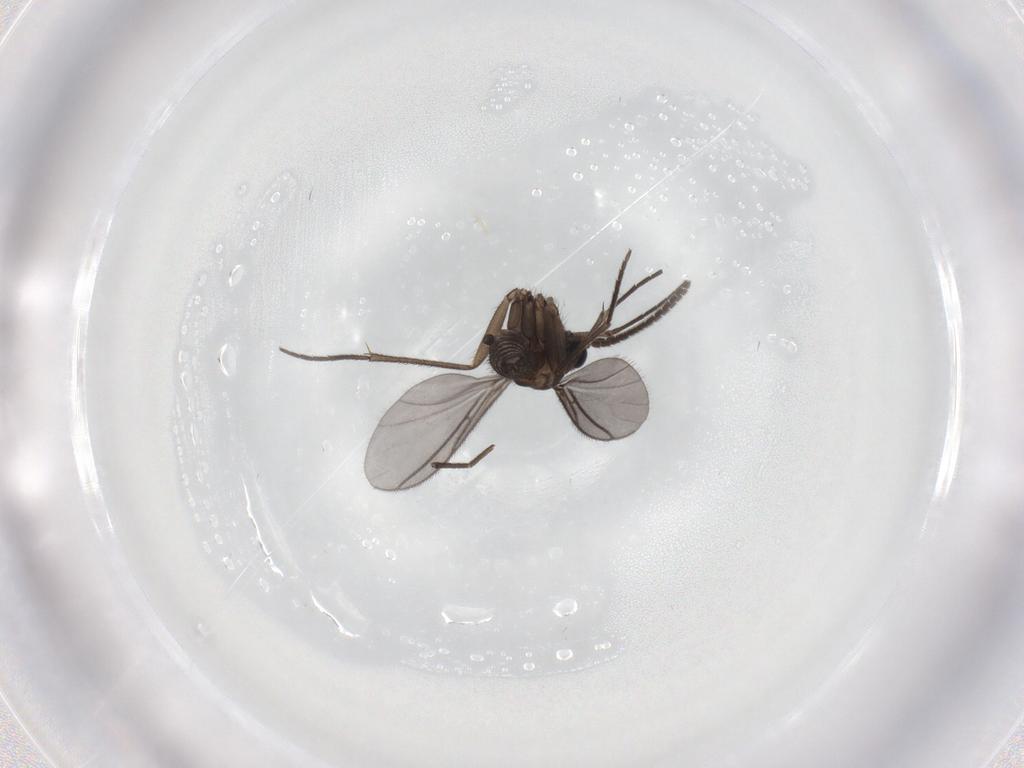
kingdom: Animalia
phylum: Arthropoda
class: Insecta
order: Diptera
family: Sciaridae
